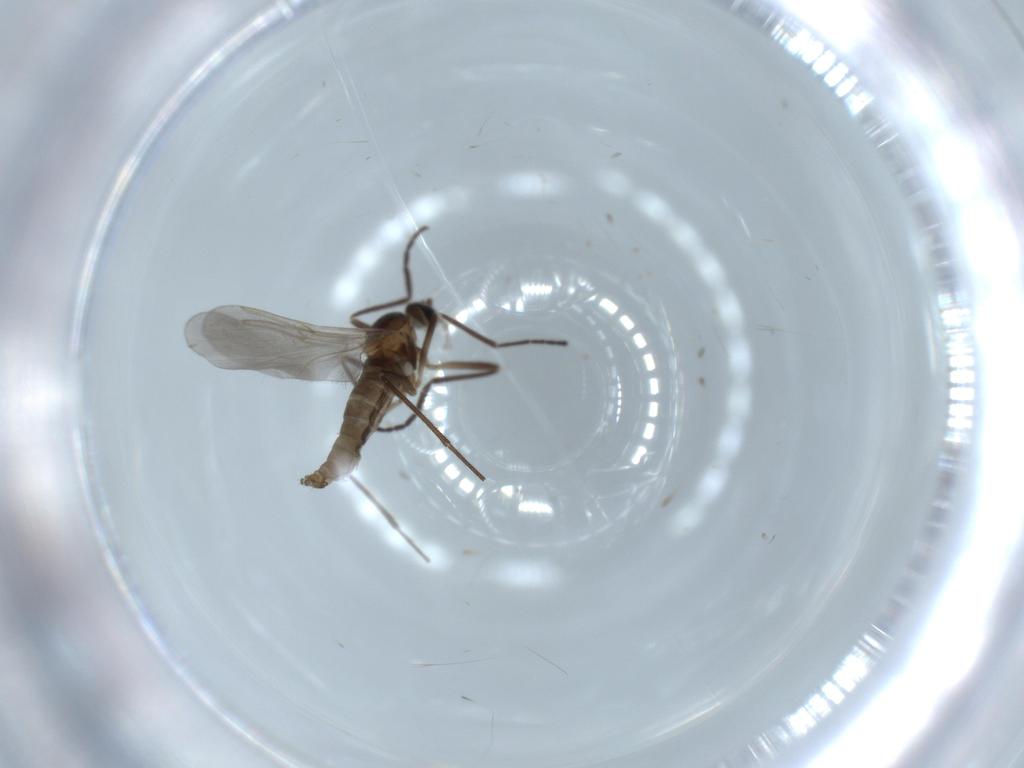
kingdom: Animalia
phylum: Arthropoda
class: Insecta
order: Diptera
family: Cecidomyiidae
